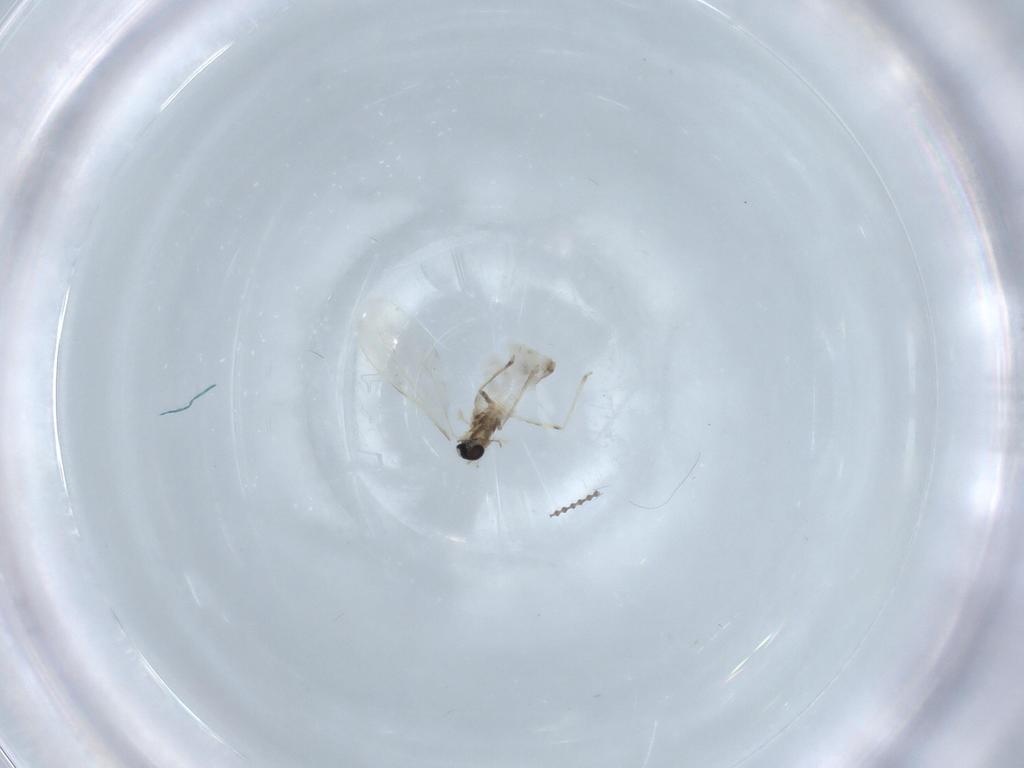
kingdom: Animalia
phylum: Arthropoda
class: Insecta
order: Diptera
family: Cecidomyiidae
